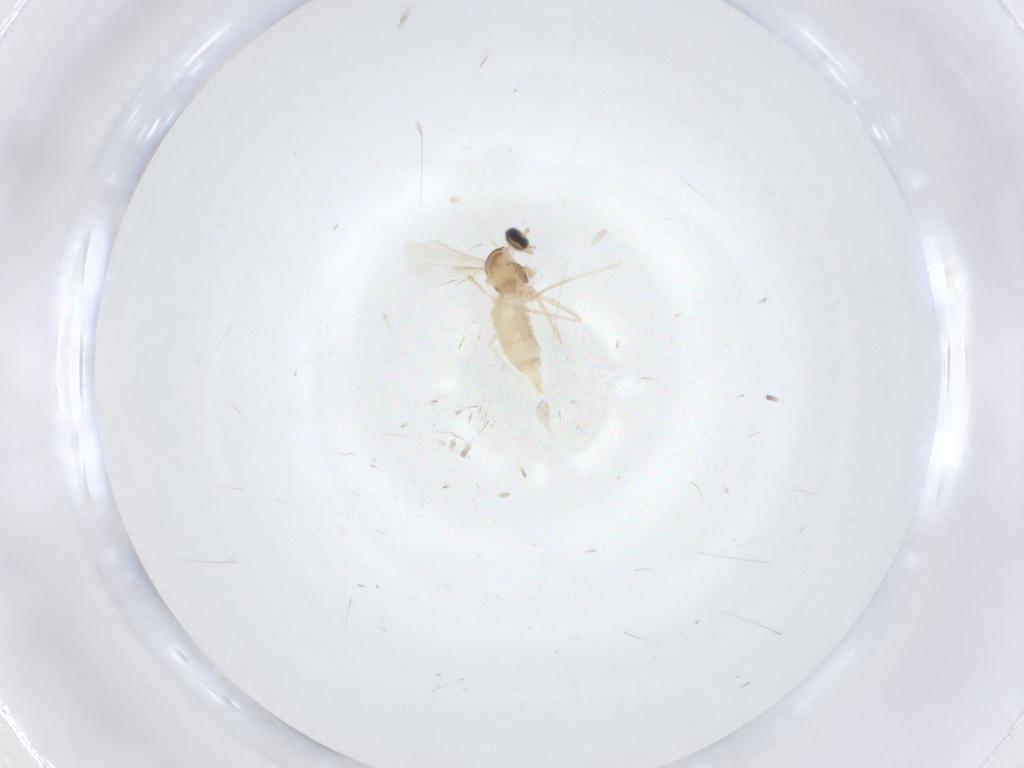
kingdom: Animalia
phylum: Arthropoda
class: Insecta
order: Diptera
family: Cecidomyiidae
